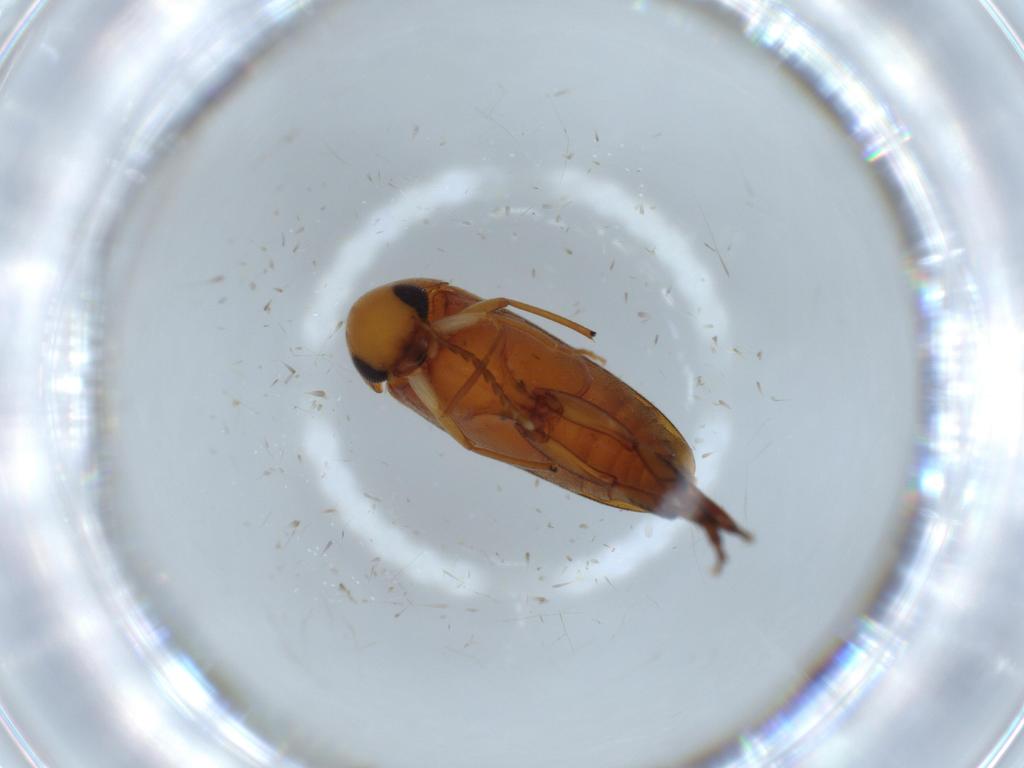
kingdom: Animalia
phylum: Arthropoda
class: Insecta
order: Coleoptera
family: Mordellidae
